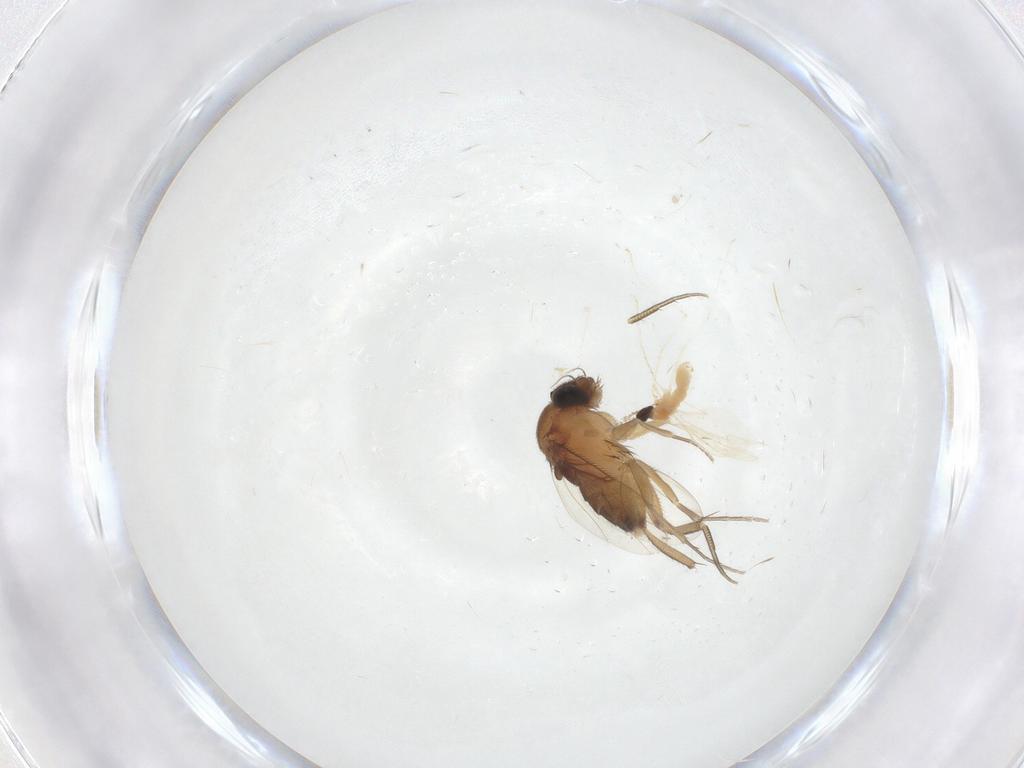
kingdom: Animalia
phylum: Arthropoda
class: Insecta
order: Diptera
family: Cecidomyiidae
